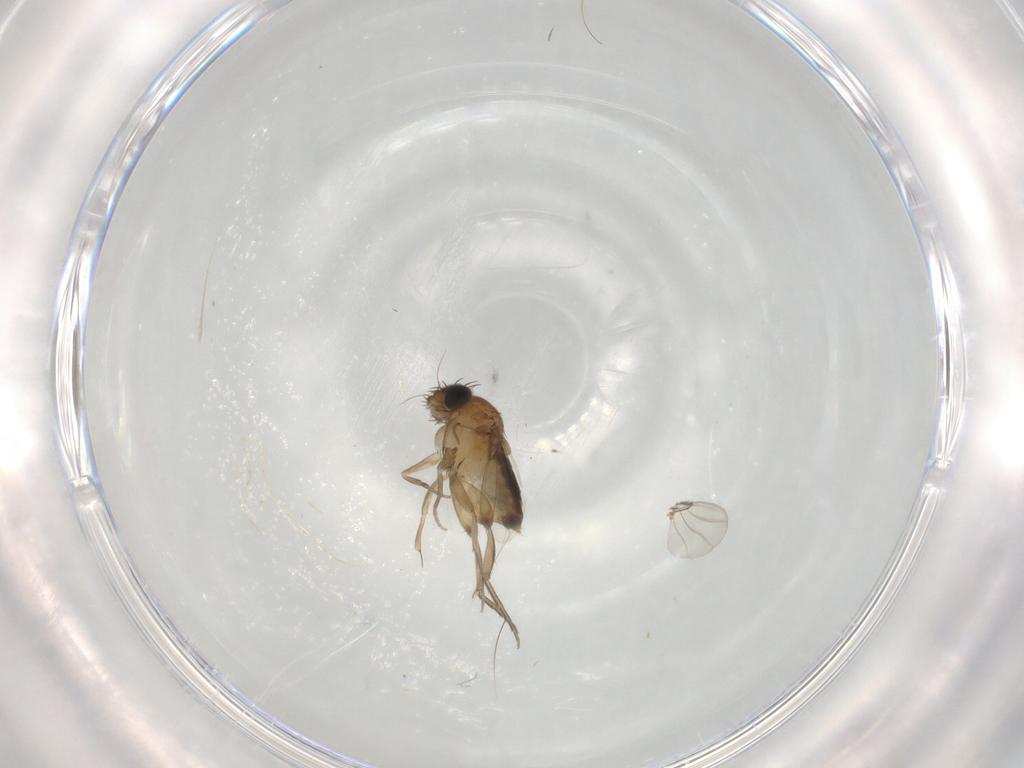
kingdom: Animalia
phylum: Arthropoda
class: Insecta
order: Diptera
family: Phoridae
